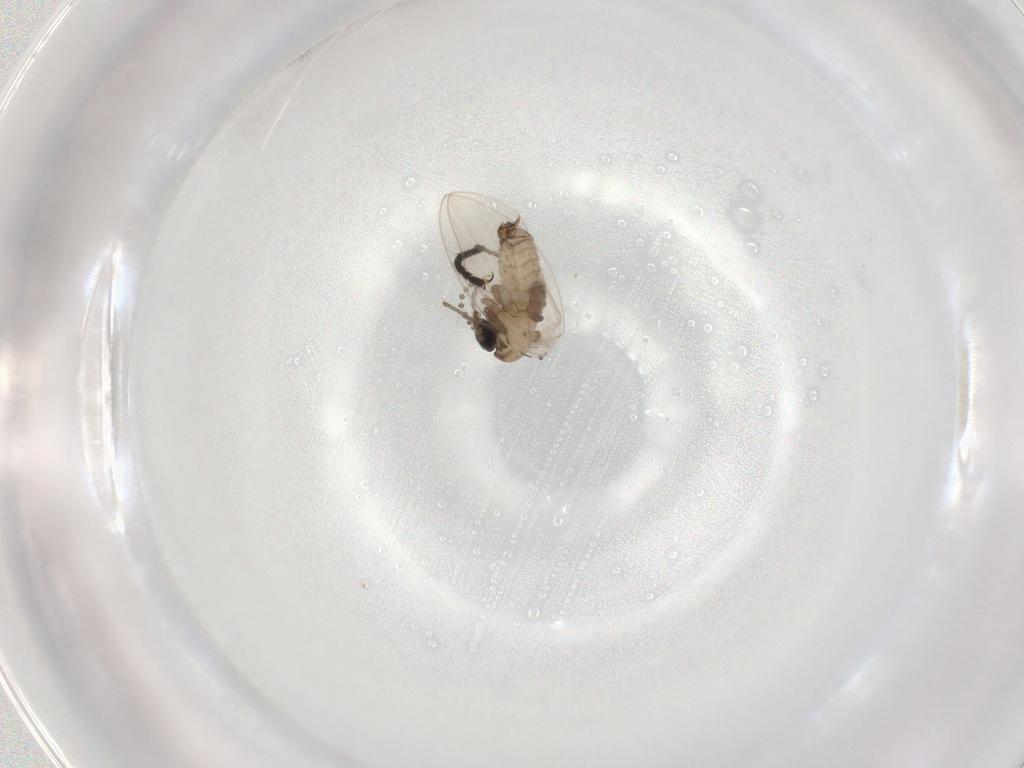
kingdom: Animalia
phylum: Arthropoda
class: Insecta
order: Diptera
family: Psychodidae
